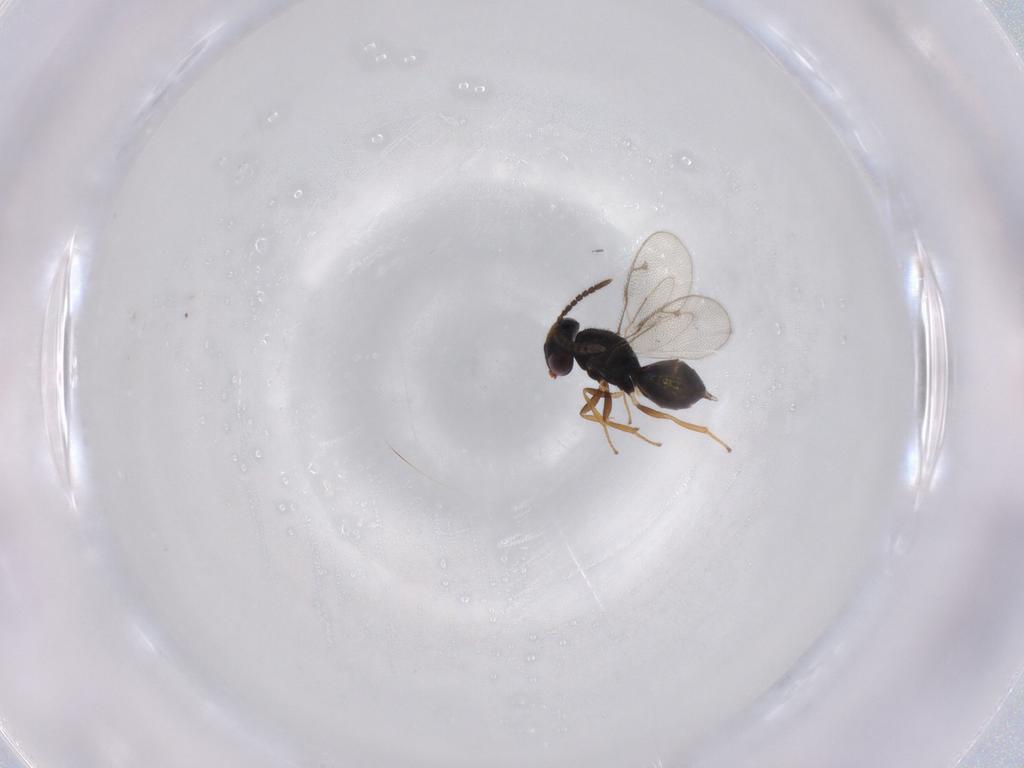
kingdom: Animalia
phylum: Arthropoda
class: Insecta
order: Hymenoptera
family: Pirenidae
